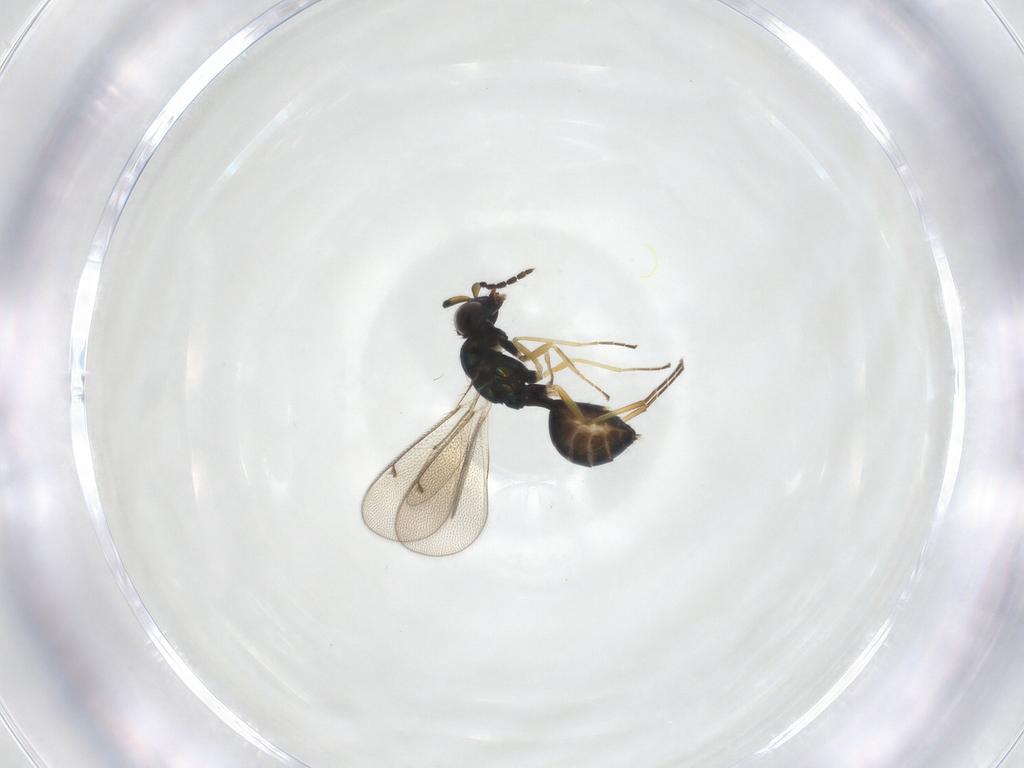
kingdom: Animalia
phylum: Arthropoda
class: Insecta
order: Hymenoptera
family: Eulophidae
